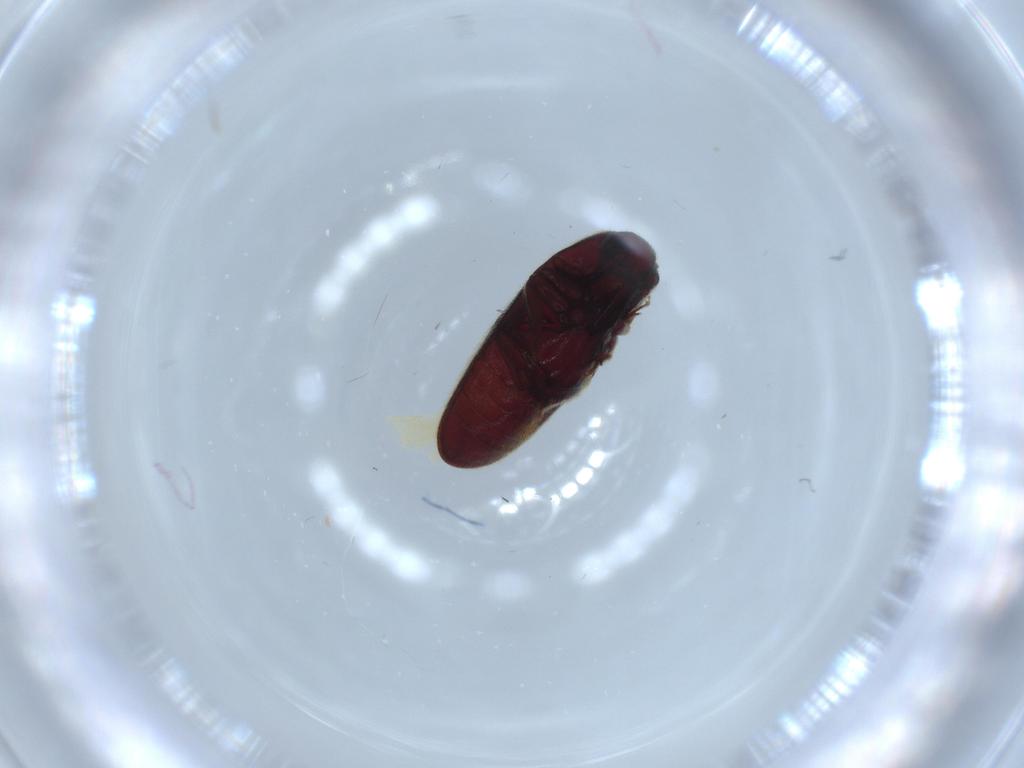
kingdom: Animalia
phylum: Arthropoda
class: Insecta
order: Coleoptera
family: Throscidae
